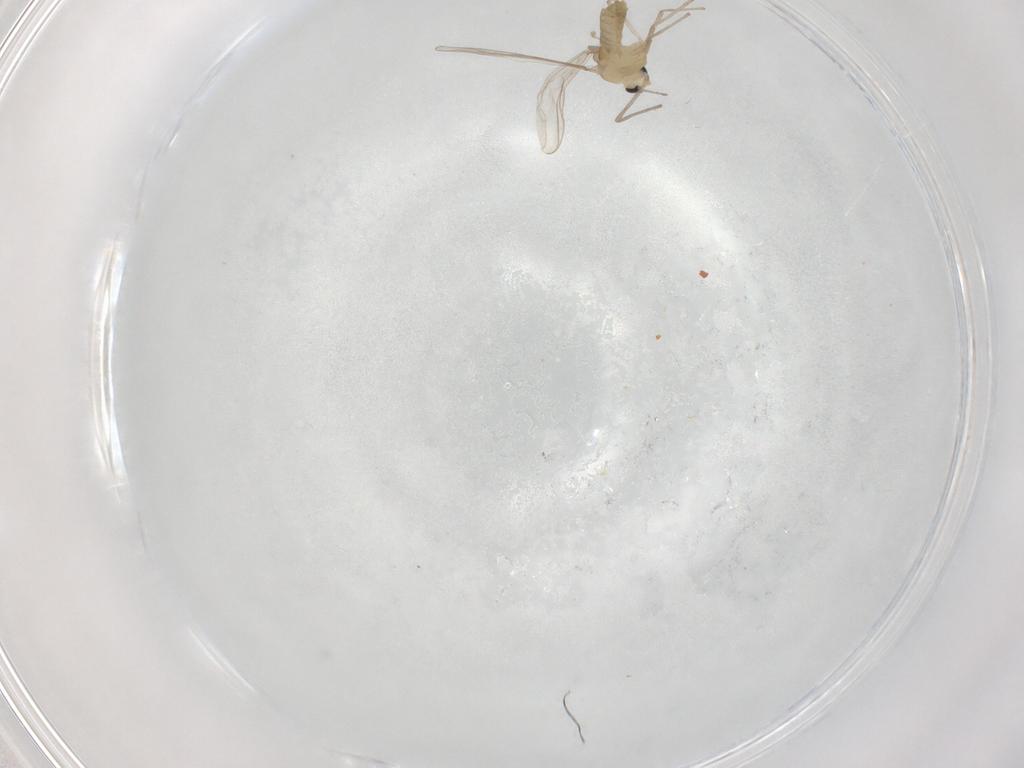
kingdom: Animalia
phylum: Arthropoda
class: Insecta
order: Diptera
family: Chironomidae
